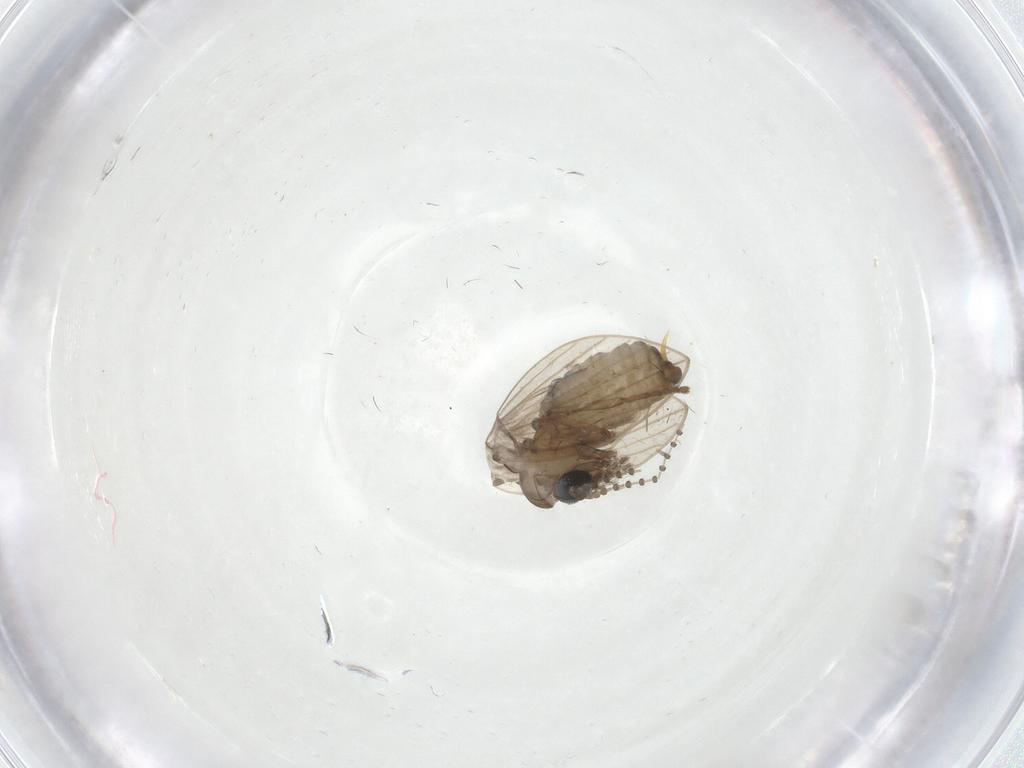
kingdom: Animalia
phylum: Arthropoda
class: Insecta
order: Diptera
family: Psychodidae
